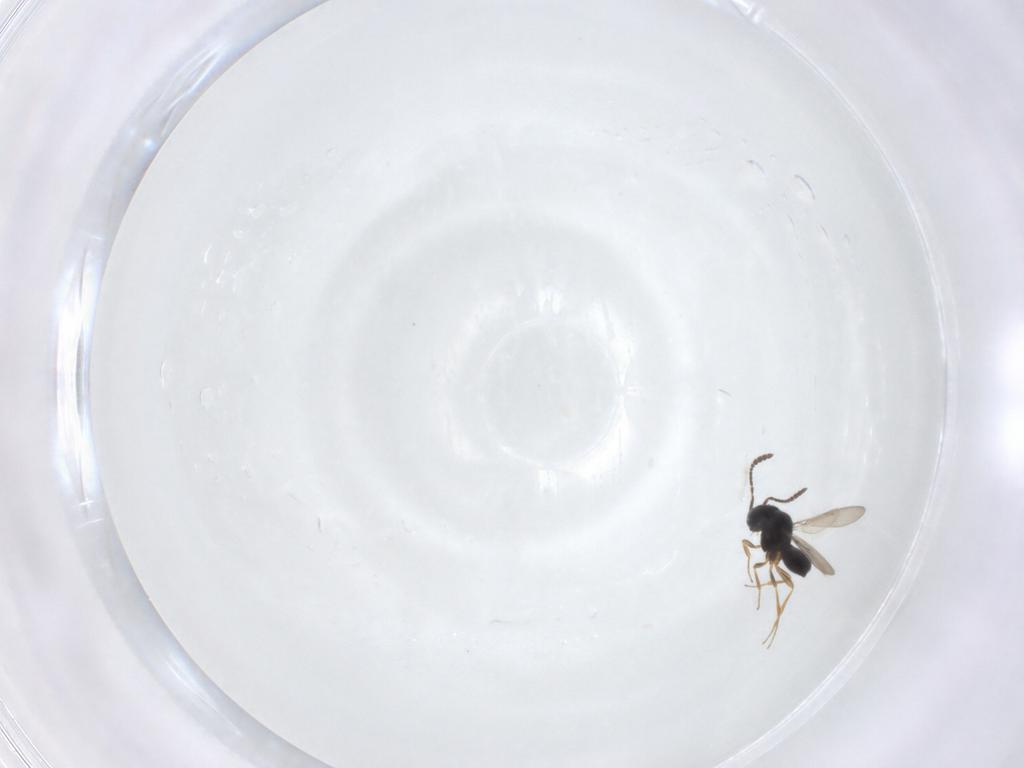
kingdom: Animalia
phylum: Arthropoda
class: Insecta
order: Hymenoptera
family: Scelionidae
